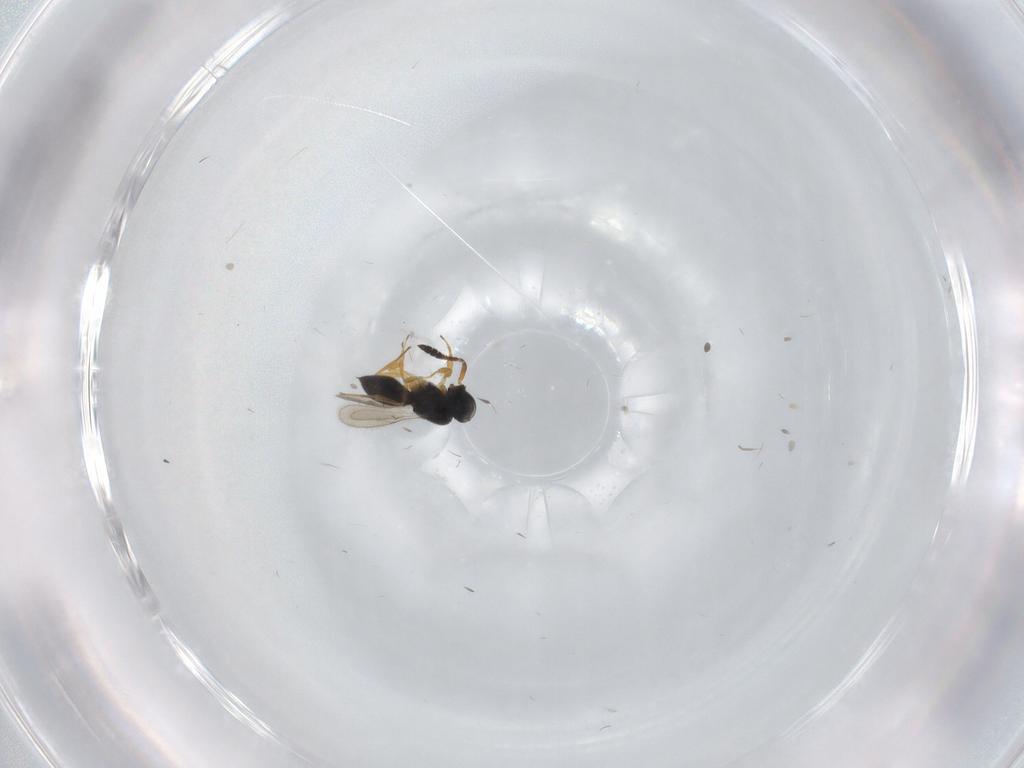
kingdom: Animalia
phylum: Arthropoda
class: Insecta
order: Hymenoptera
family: Scelionidae
